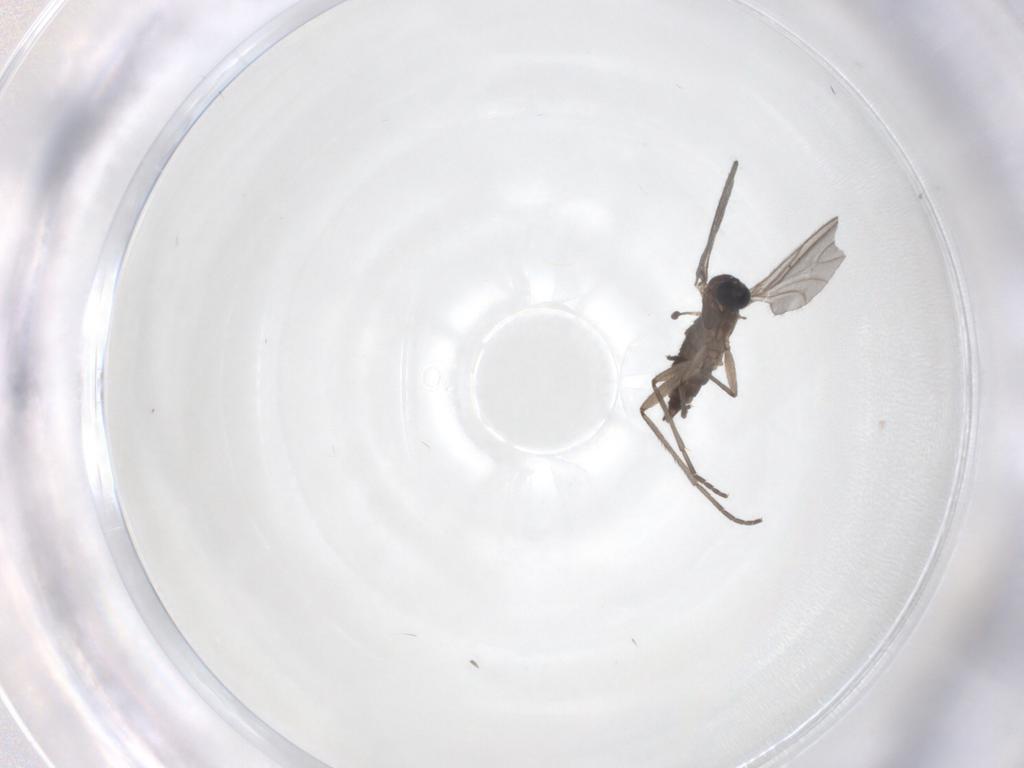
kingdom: Animalia
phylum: Arthropoda
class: Insecta
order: Diptera
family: Sciaridae
